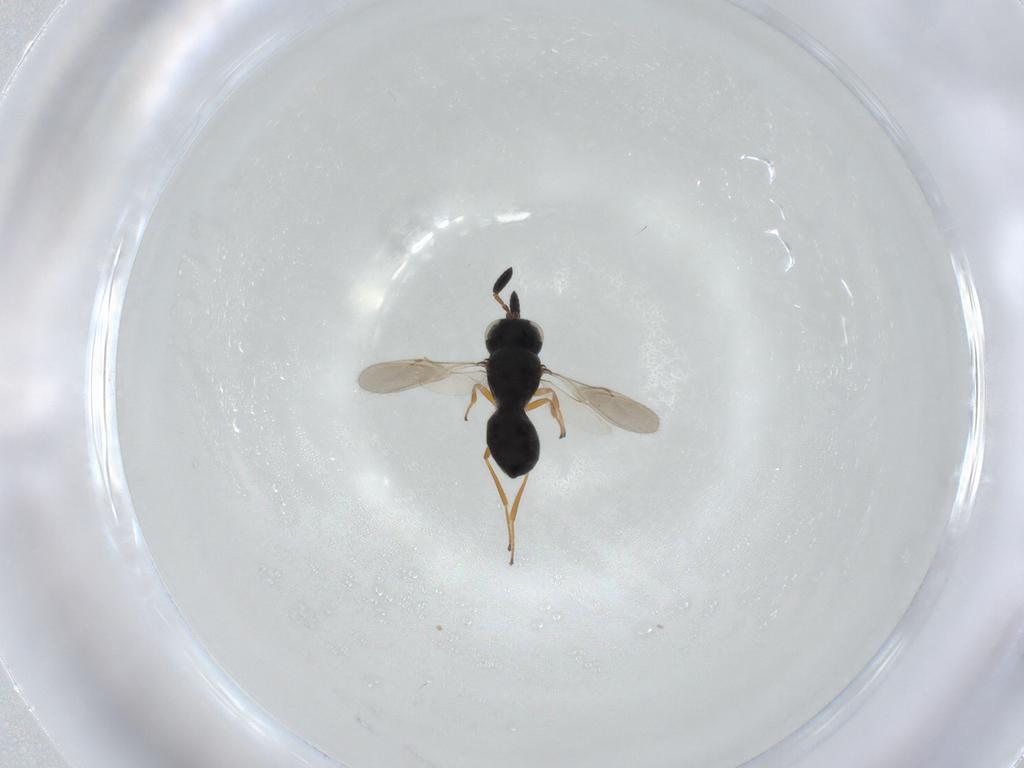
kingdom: Animalia
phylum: Arthropoda
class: Insecta
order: Hymenoptera
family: Scelionidae
